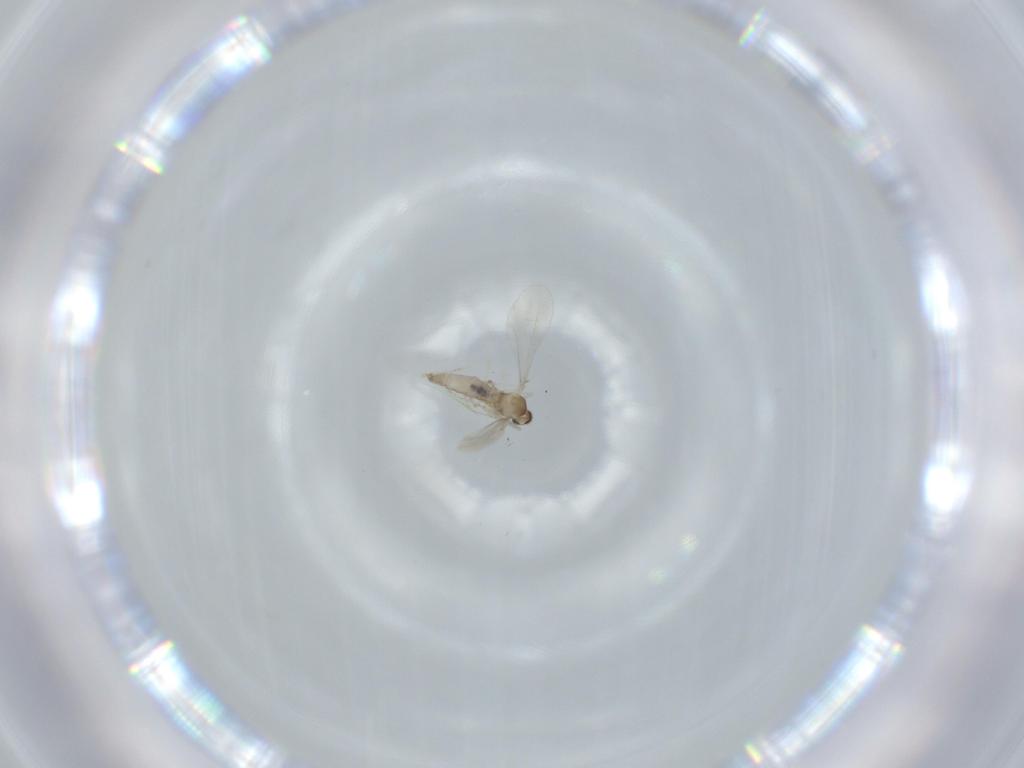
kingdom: Animalia
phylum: Arthropoda
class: Insecta
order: Diptera
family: Cecidomyiidae
